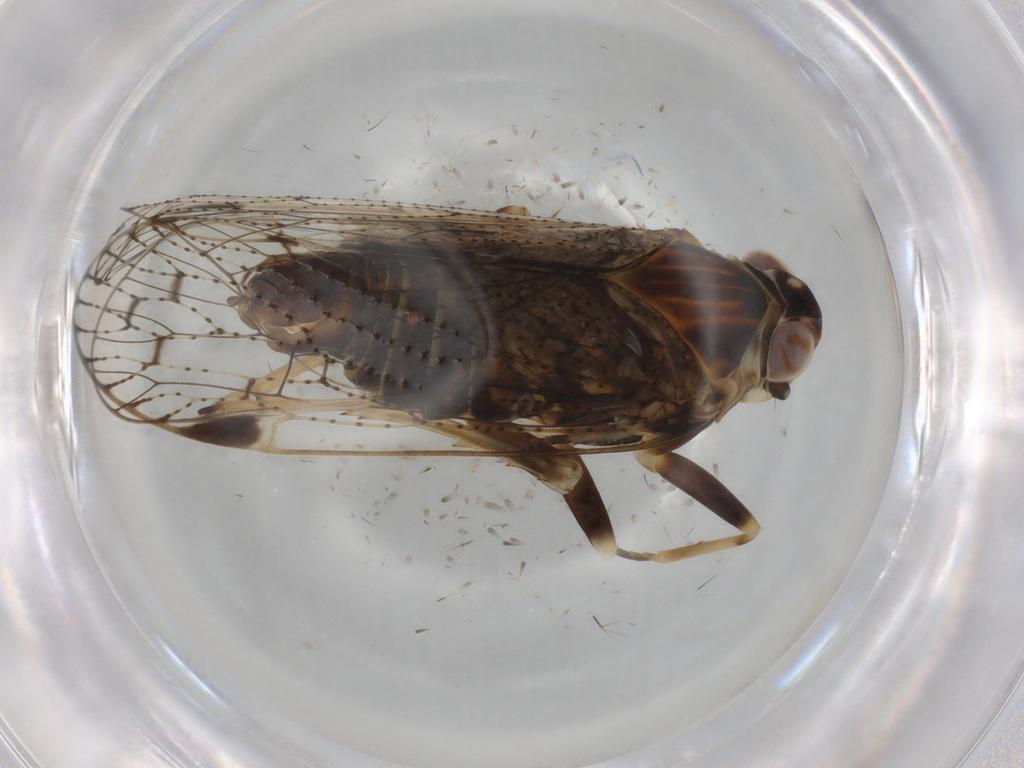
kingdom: Animalia
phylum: Arthropoda
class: Insecta
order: Hemiptera
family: Cixiidae
